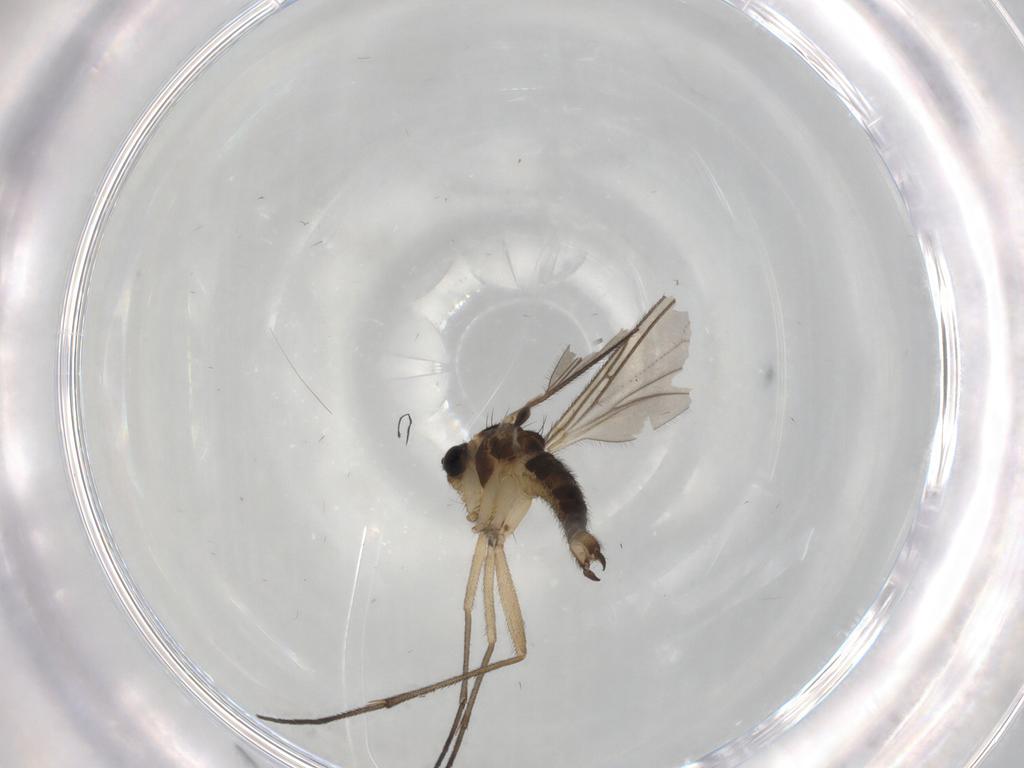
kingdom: Animalia
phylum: Arthropoda
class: Insecta
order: Diptera
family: Sciaridae
